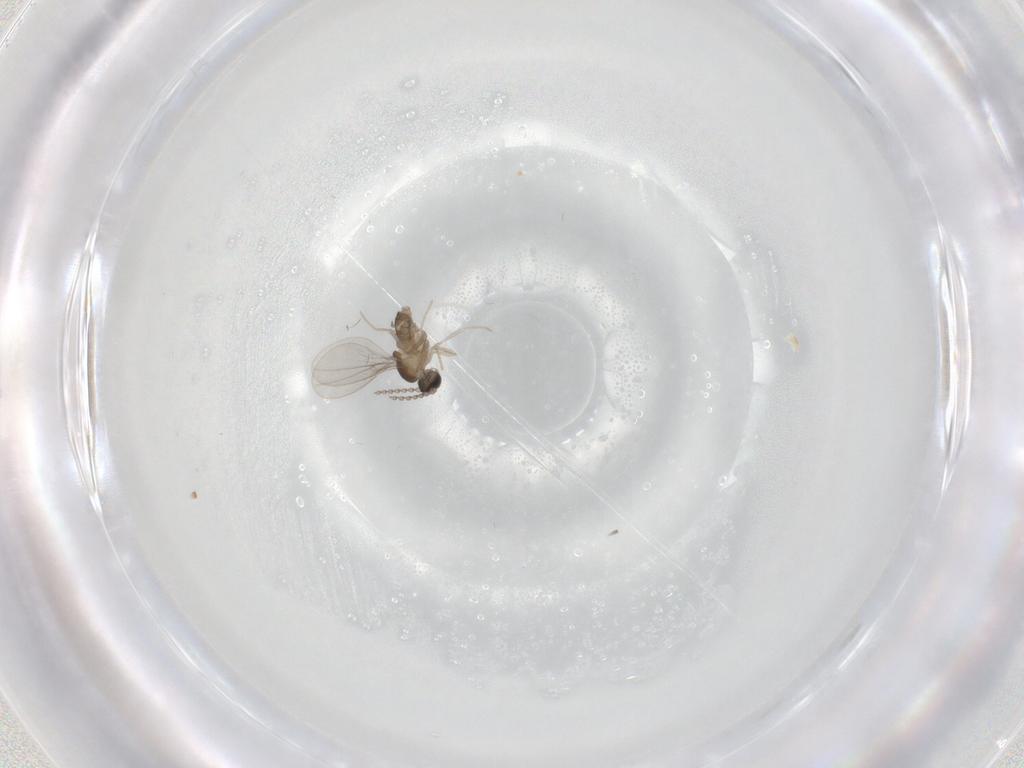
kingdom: Animalia
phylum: Arthropoda
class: Insecta
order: Diptera
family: Cecidomyiidae
